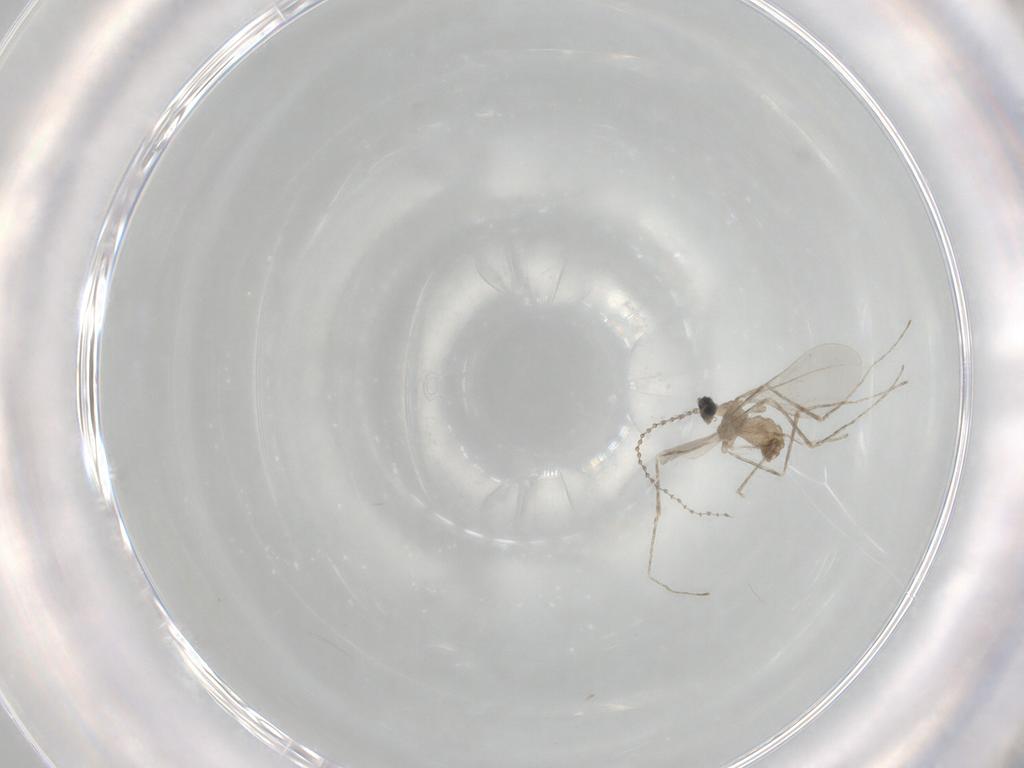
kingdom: Animalia
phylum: Arthropoda
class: Insecta
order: Diptera
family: Cecidomyiidae
